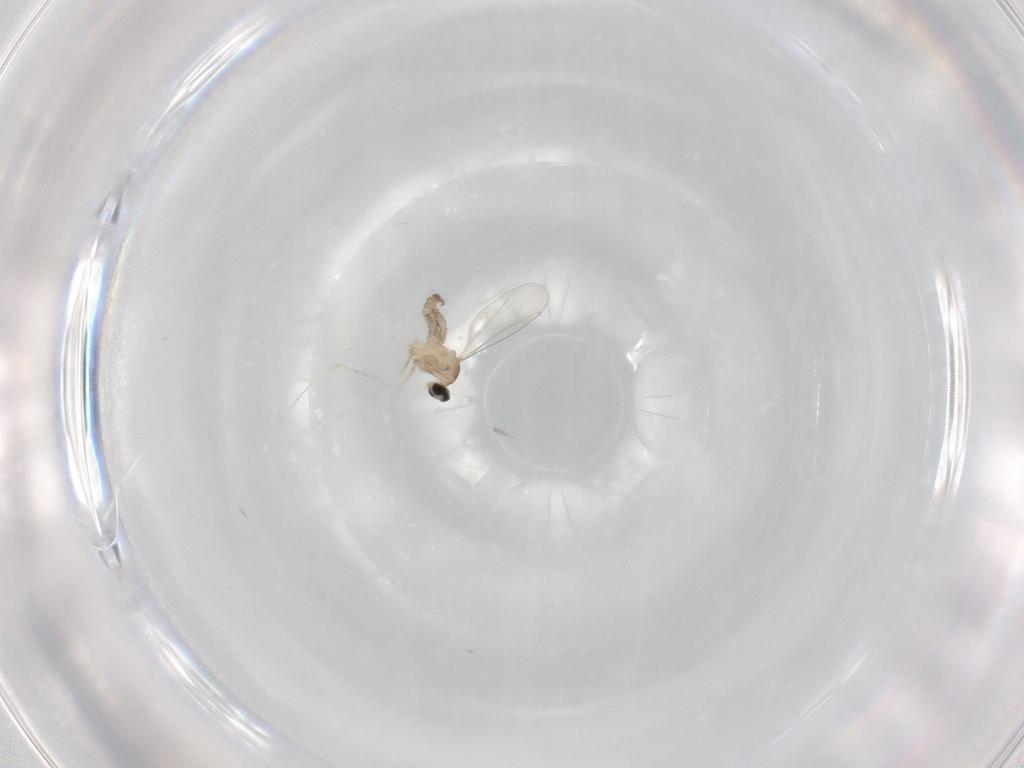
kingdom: Animalia
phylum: Arthropoda
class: Insecta
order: Diptera
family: Cecidomyiidae
